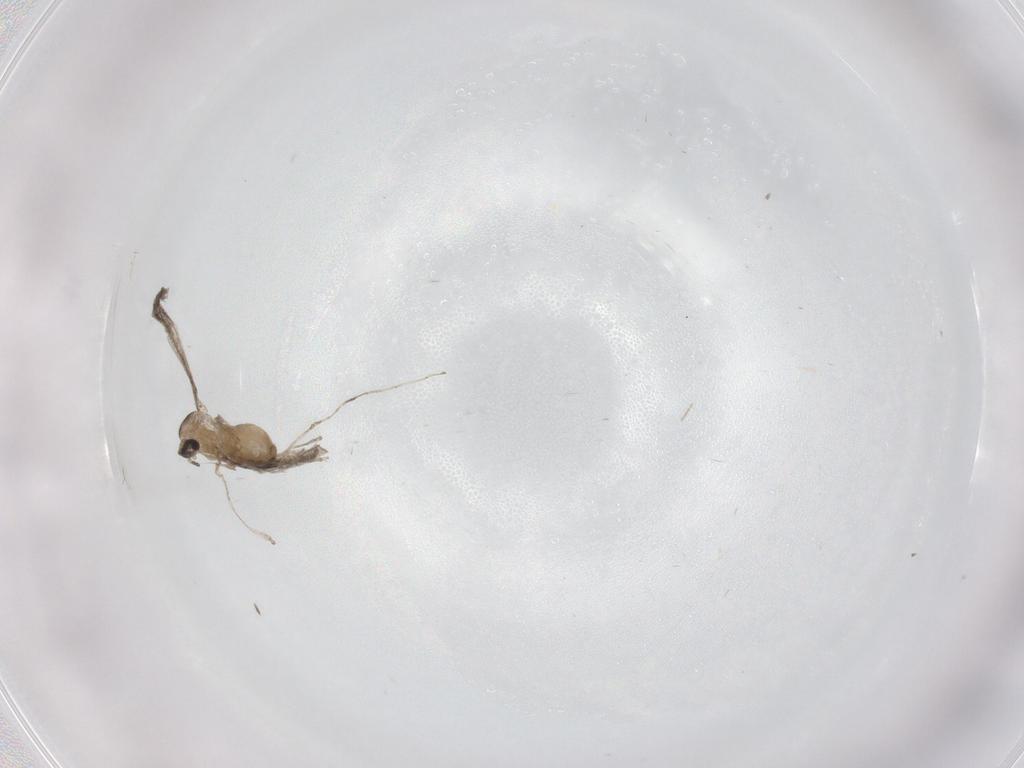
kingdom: Animalia
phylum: Arthropoda
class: Insecta
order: Diptera
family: Chironomidae
